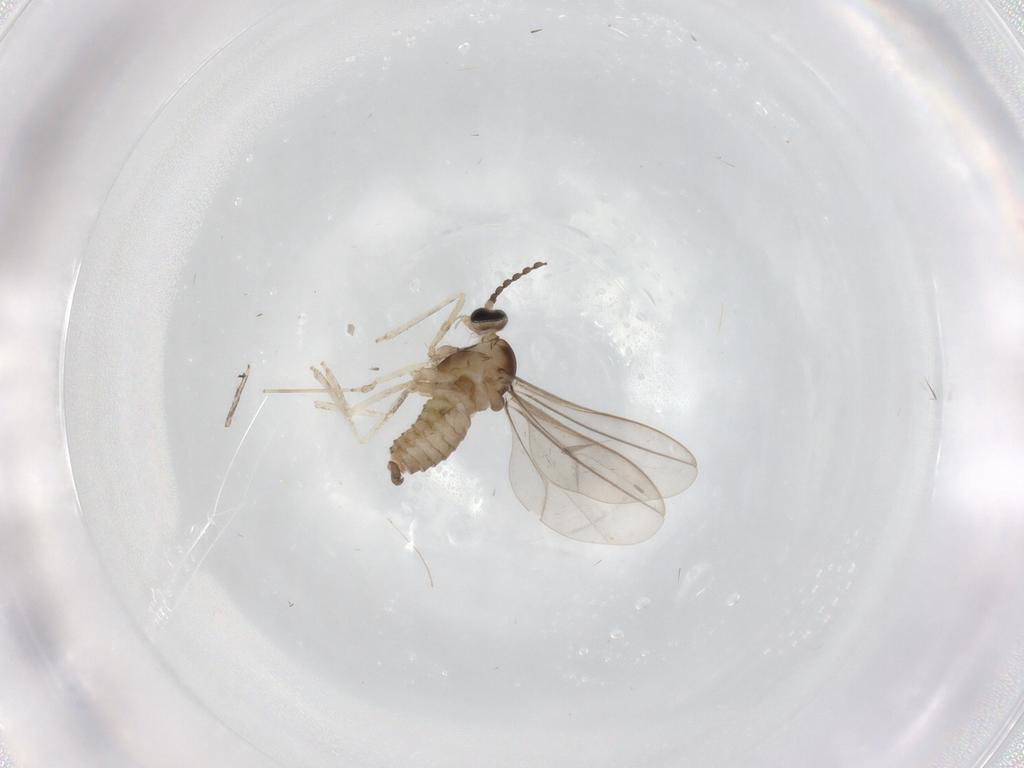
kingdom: Animalia
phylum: Arthropoda
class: Insecta
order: Diptera
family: Cecidomyiidae
